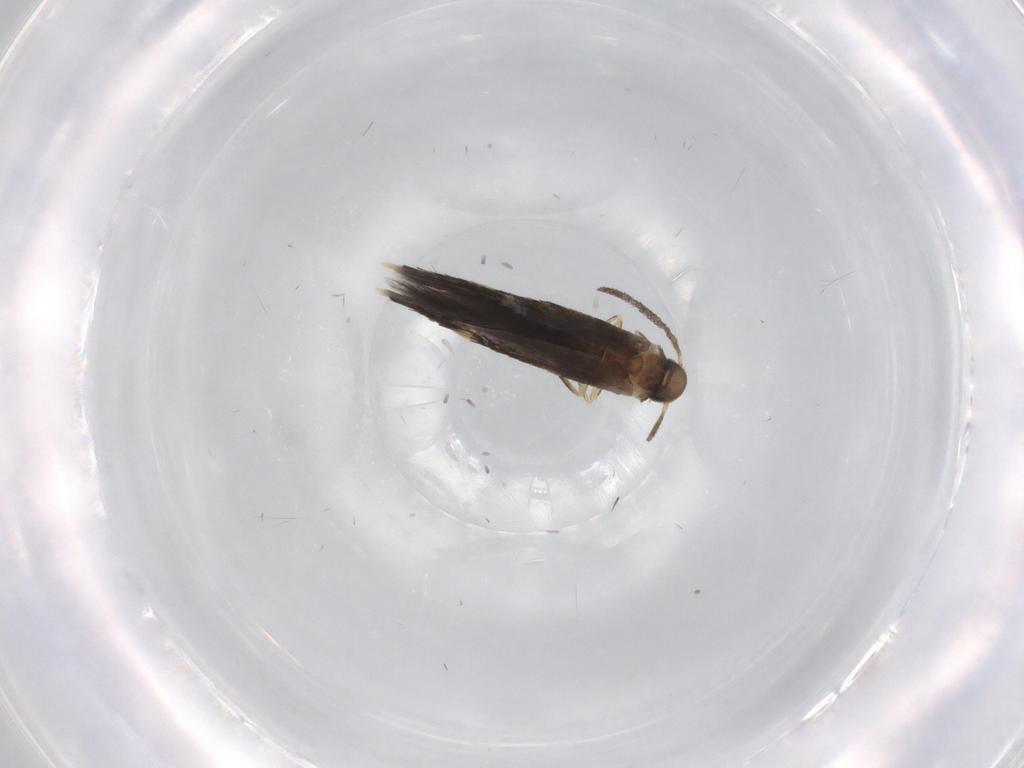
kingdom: Animalia
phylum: Arthropoda
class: Insecta
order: Lepidoptera
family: Heliozelidae
